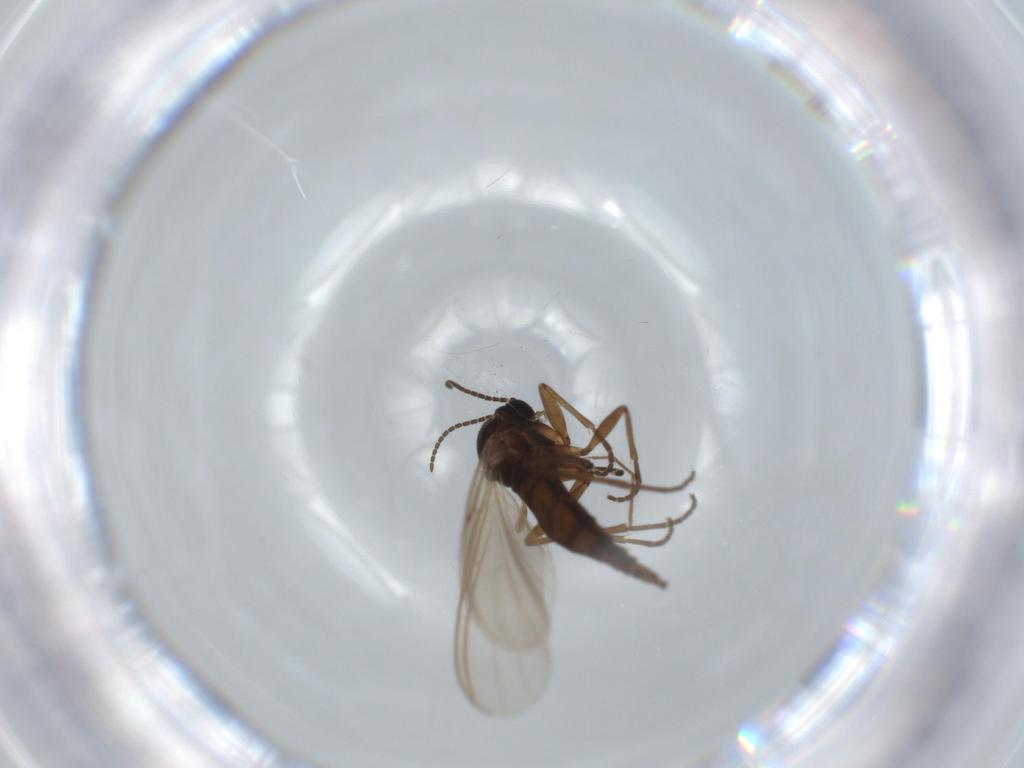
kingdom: Animalia
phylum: Arthropoda
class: Insecta
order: Diptera
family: Sciaridae
